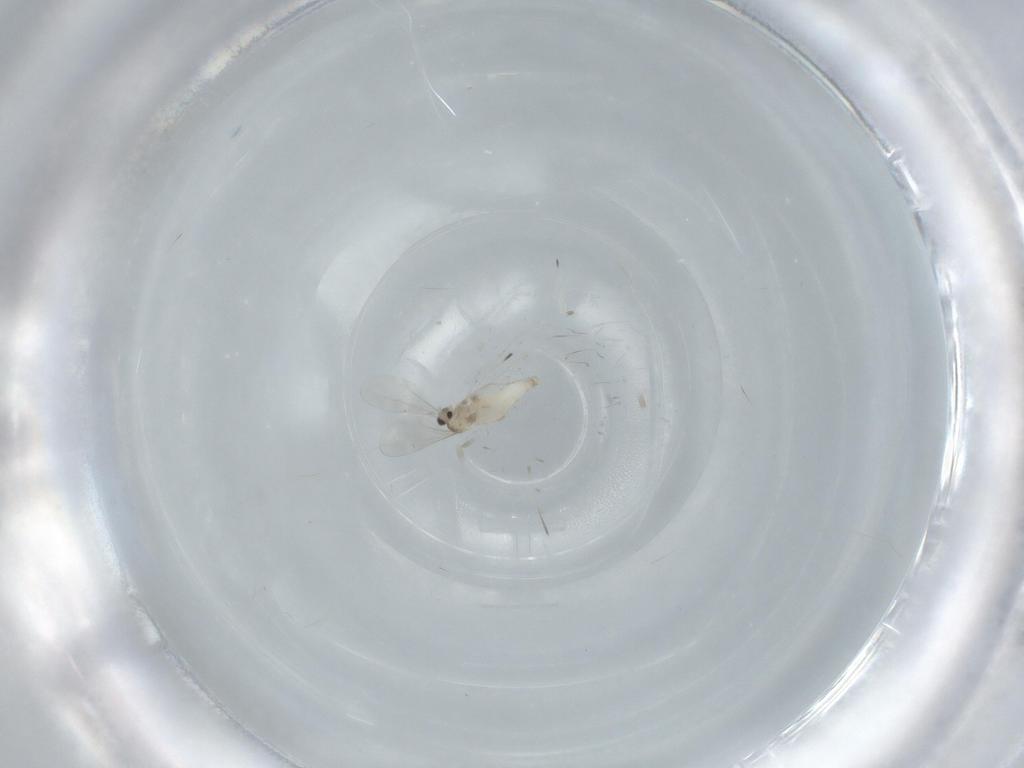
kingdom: Animalia
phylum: Arthropoda
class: Insecta
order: Diptera
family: Drosophilidae
